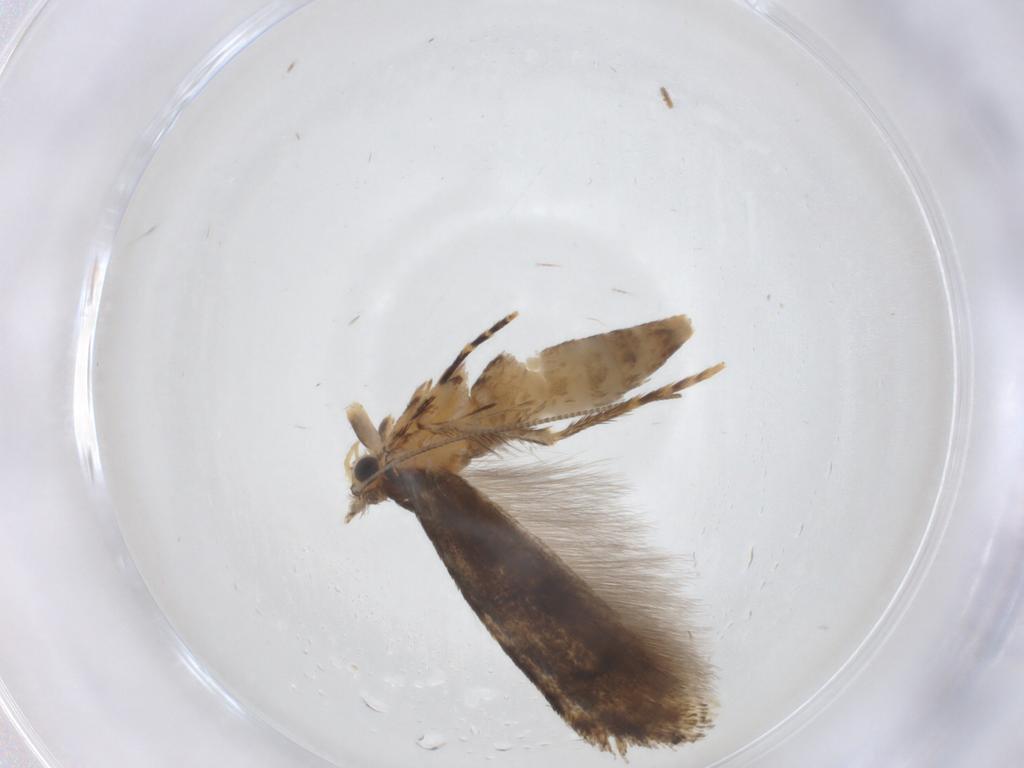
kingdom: Animalia
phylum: Arthropoda
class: Insecta
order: Lepidoptera
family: Tineidae
